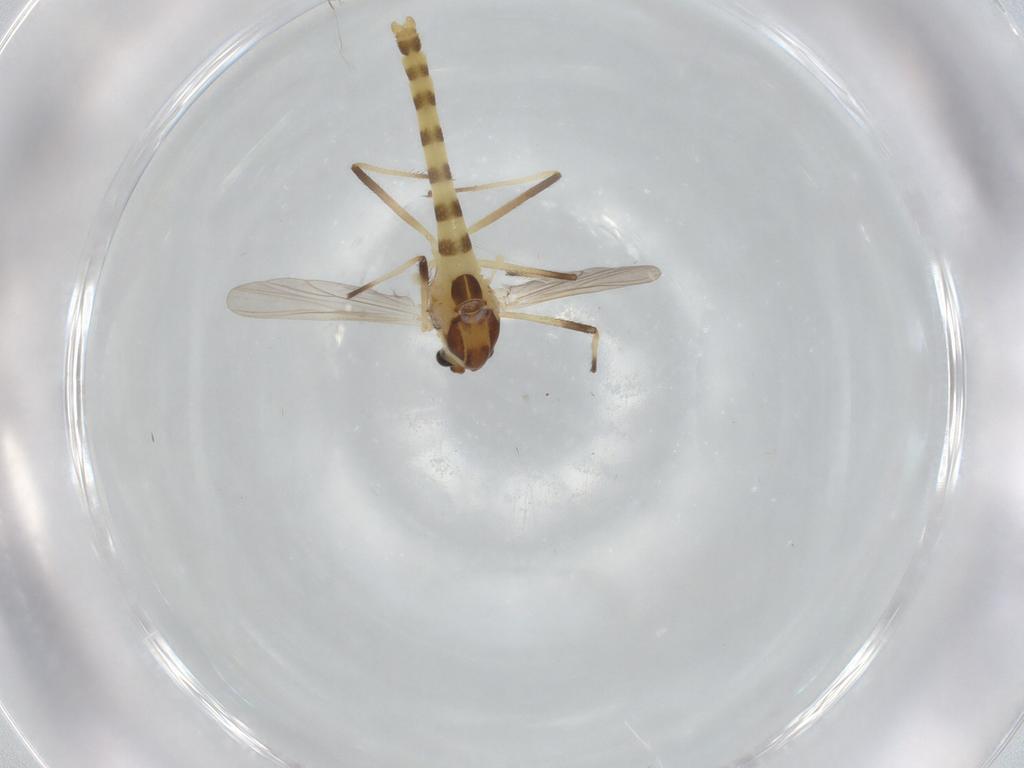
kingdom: Animalia
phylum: Arthropoda
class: Insecta
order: Diptera
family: Chironomidae
